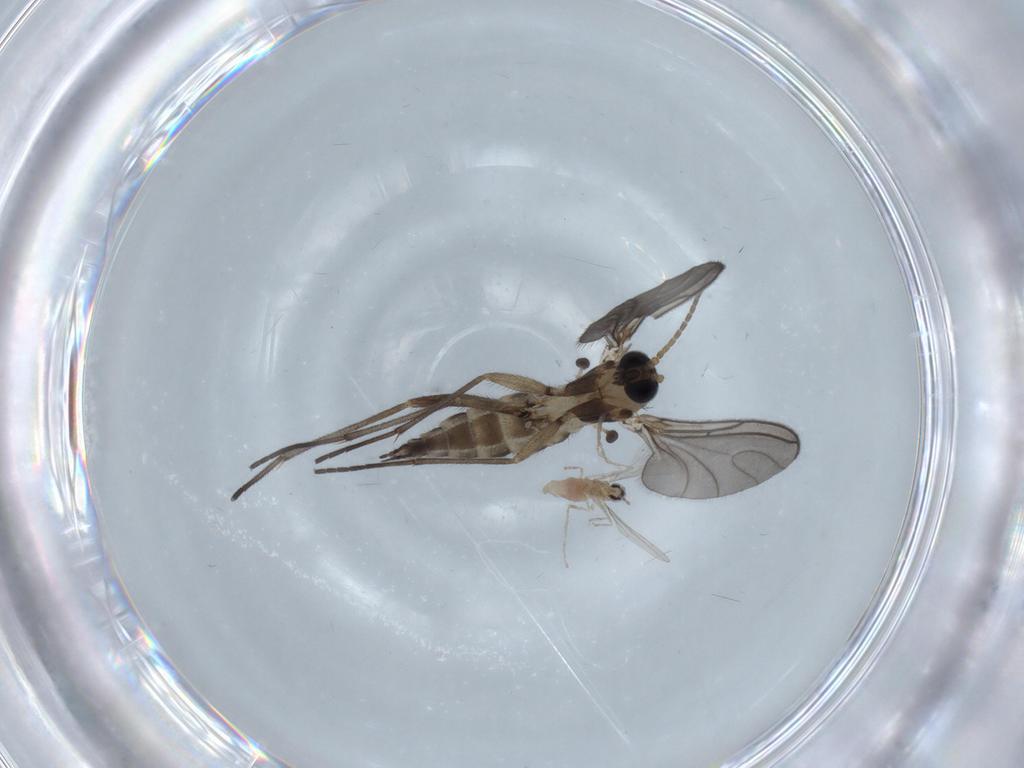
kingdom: Animalia
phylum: Arthropoda
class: Insecta
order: Diptera
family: Sciaridae
